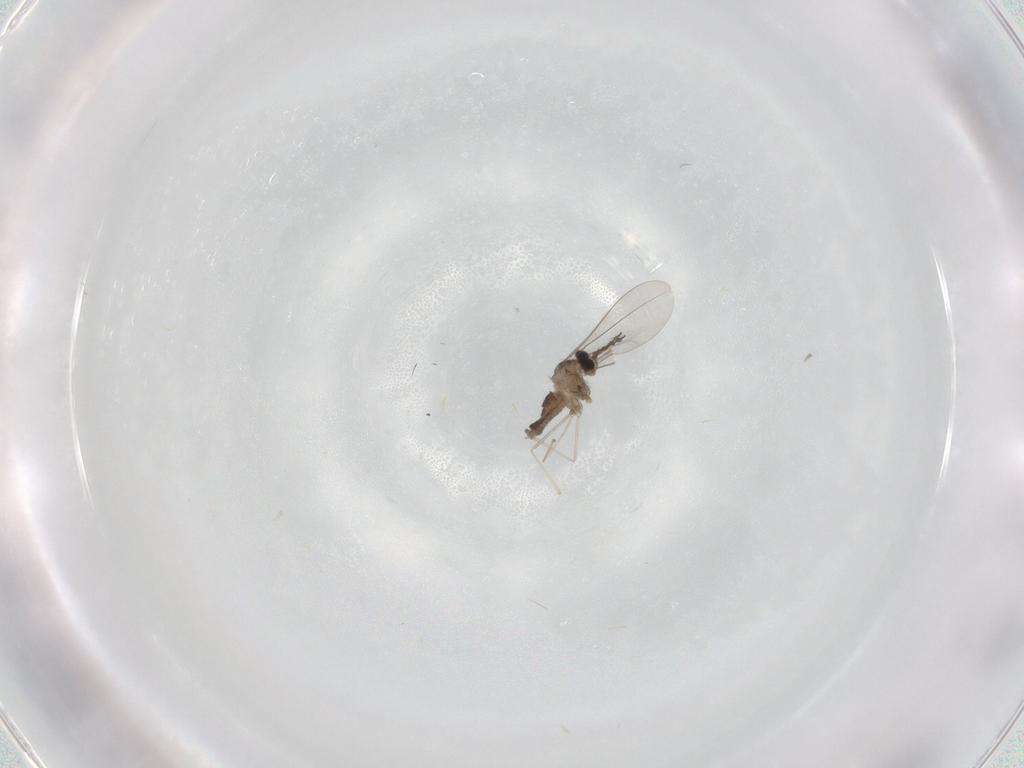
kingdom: Animalia
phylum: Arthropoda
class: Insecta
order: Diptera
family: Cecidomyiidae
